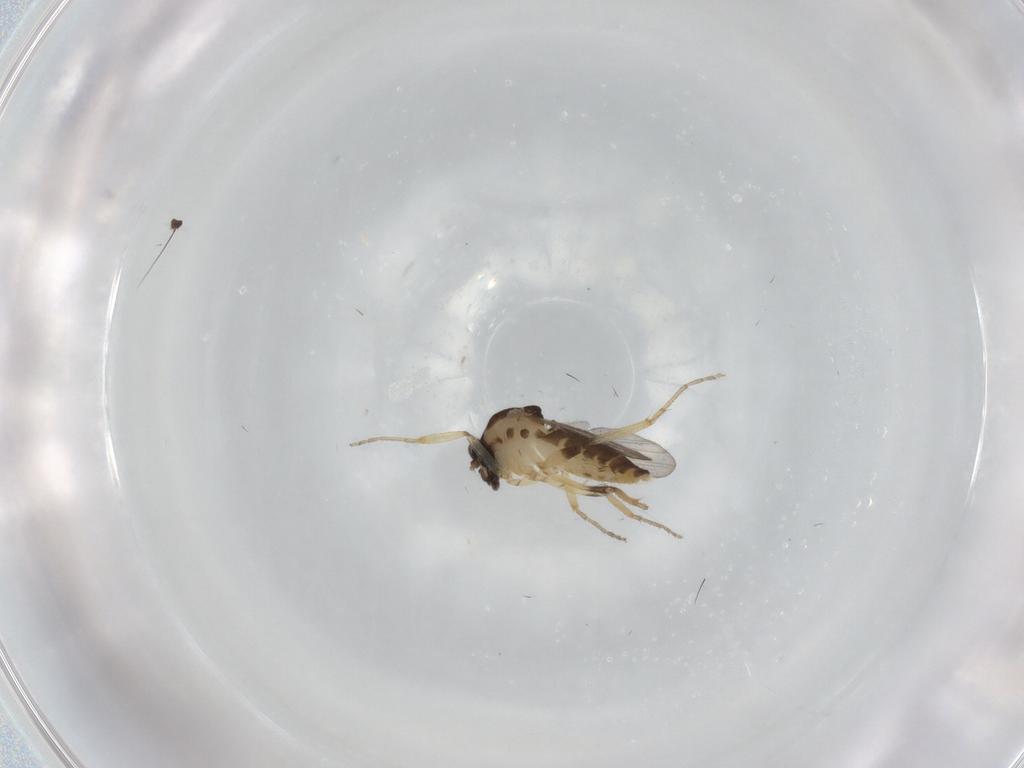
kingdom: Animalia
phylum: Arthropoda
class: Insecta
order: Diptera
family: Ceratopogonidae
